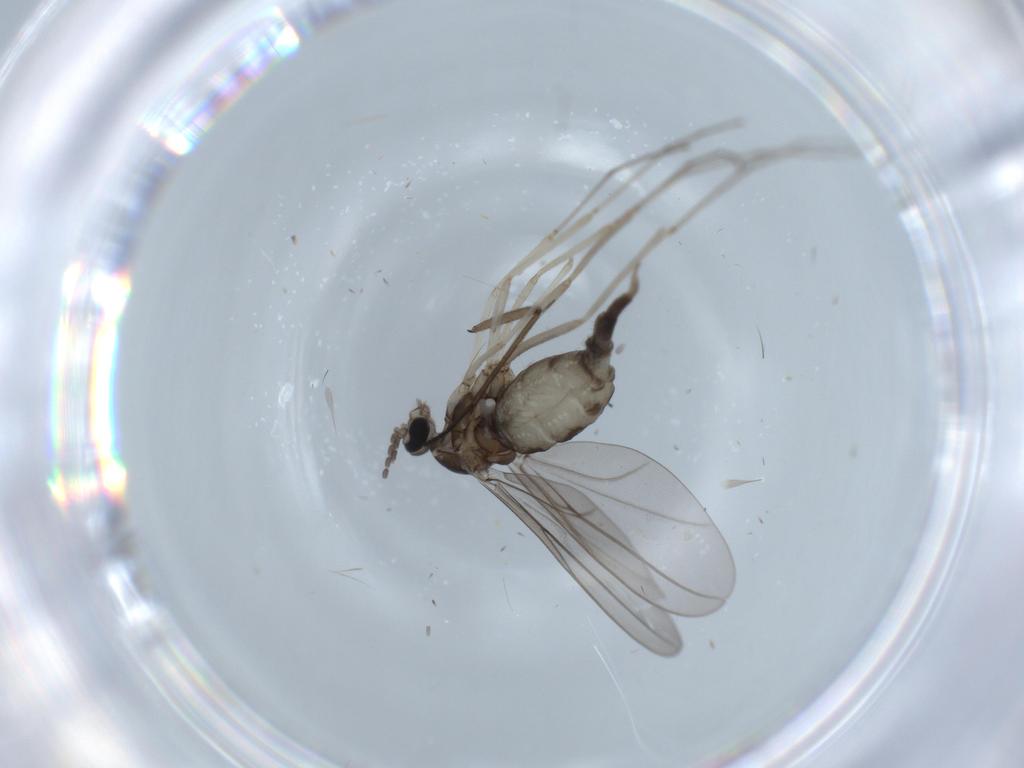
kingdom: Animalia
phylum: Arthropoda
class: Insecta
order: Diptera
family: Cecidomyiidae
